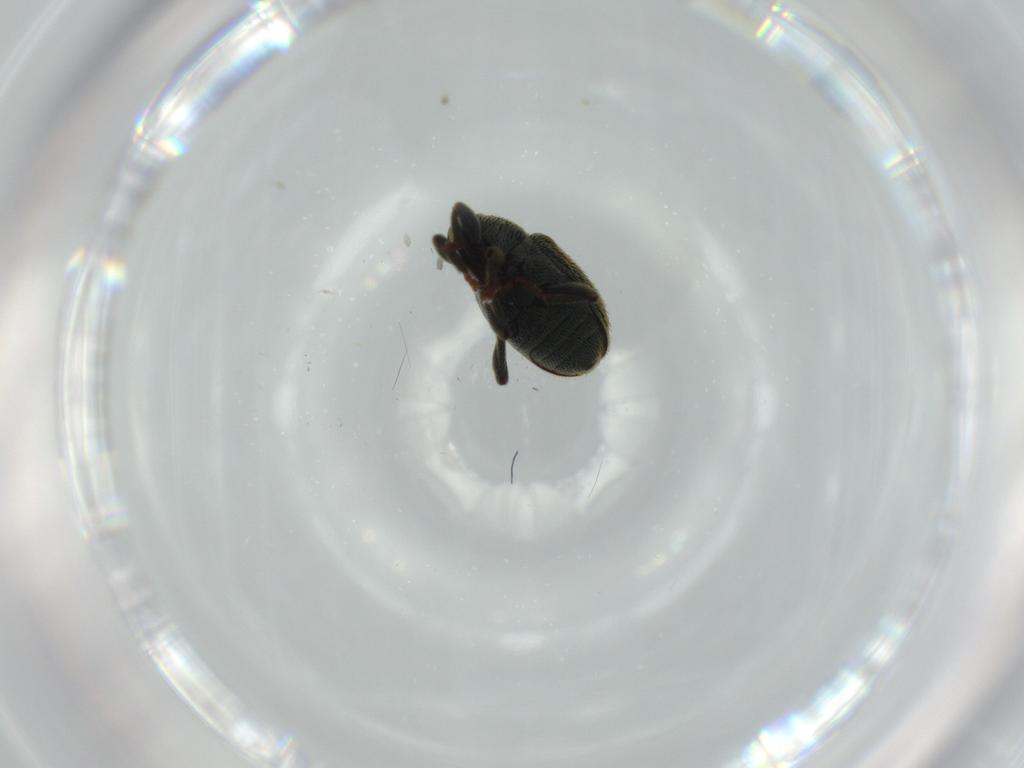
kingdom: Animalia
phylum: Arthropoda
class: Insecta
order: Coleoptera
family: Curculionidae
